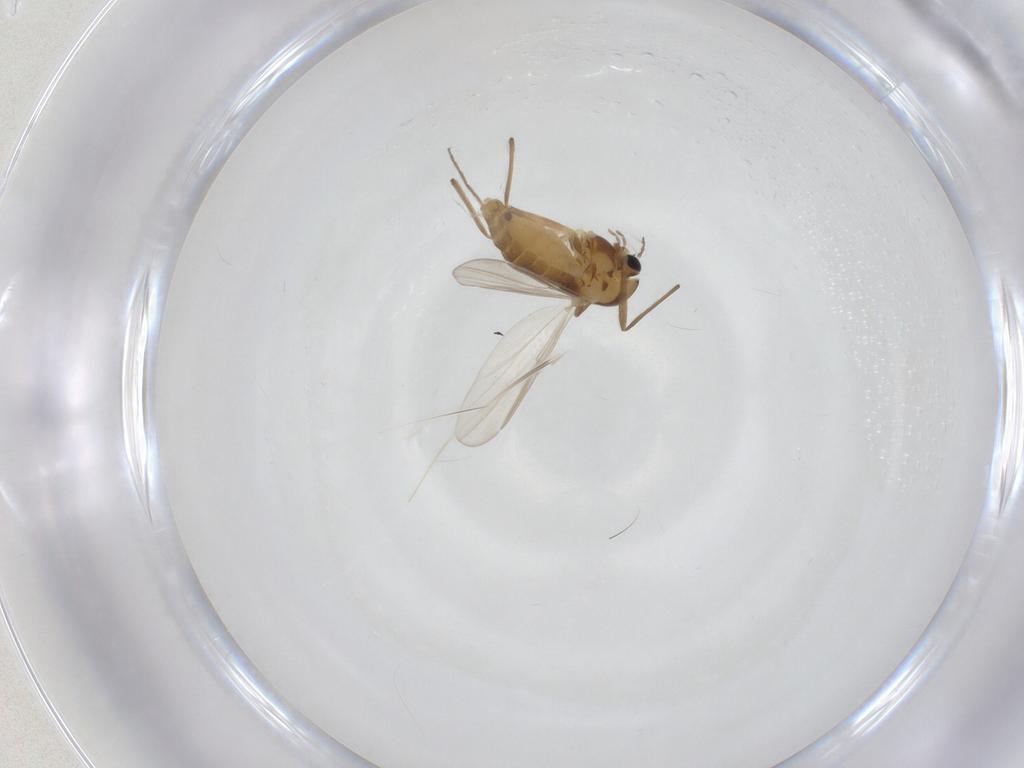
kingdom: Animalia
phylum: Arthropoda
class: Insecta
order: Diptera
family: Chironomidae
